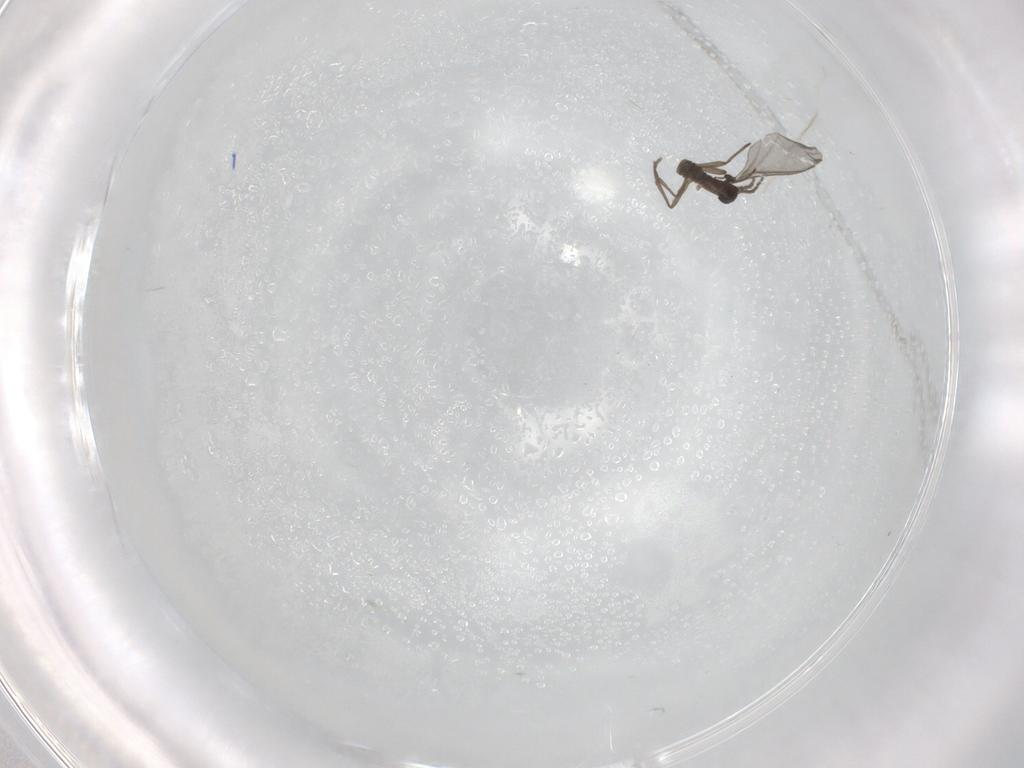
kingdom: Animalia
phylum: Arthropoda
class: Insecta
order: Diptera
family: Sciaridae
